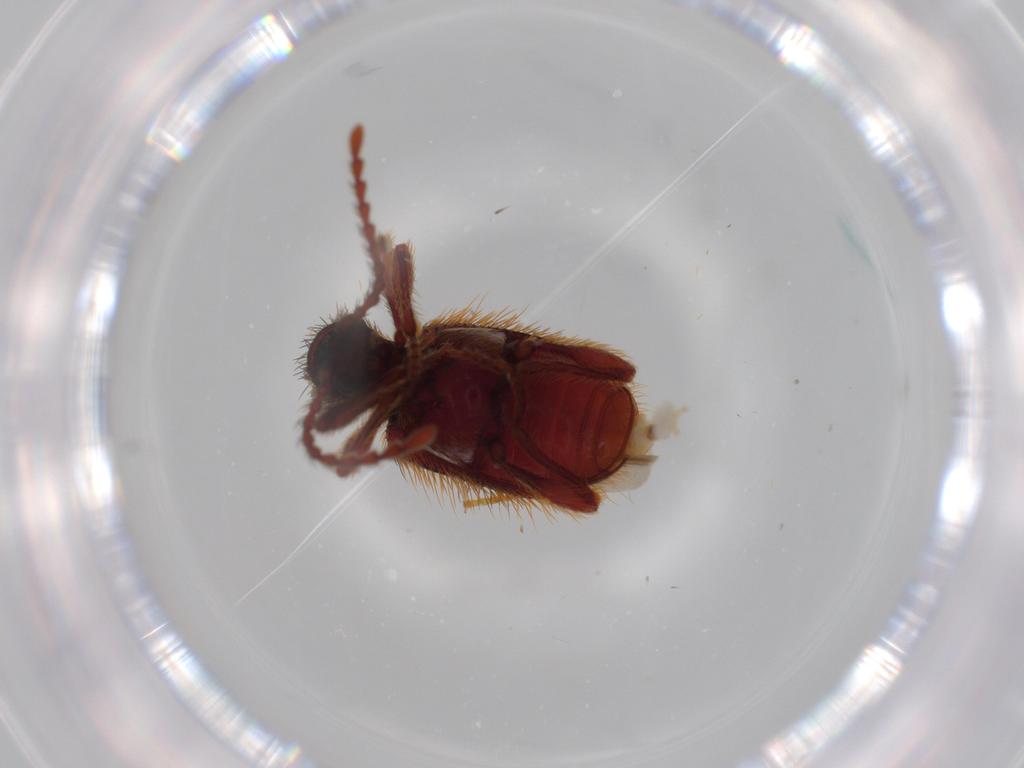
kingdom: Animalia
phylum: Arthropoda
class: Insecta
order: Coleoptera
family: Ptinidae
